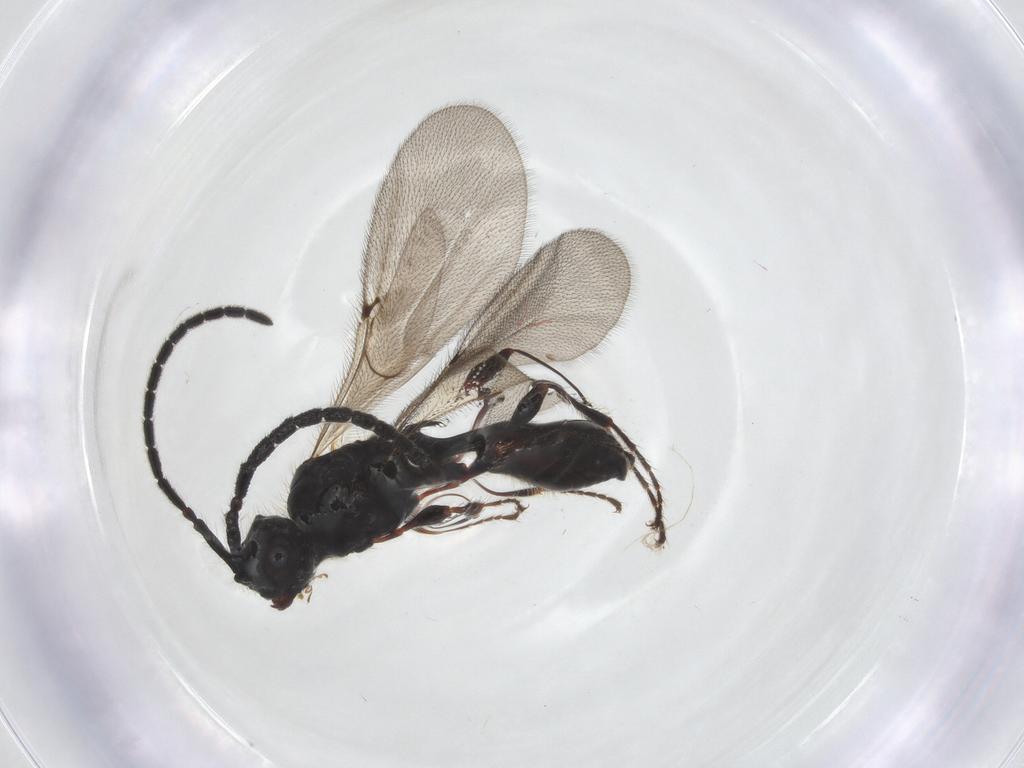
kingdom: Animalia
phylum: Arthropoda
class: Insecta
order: Hymenoptera
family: Diapriidae
